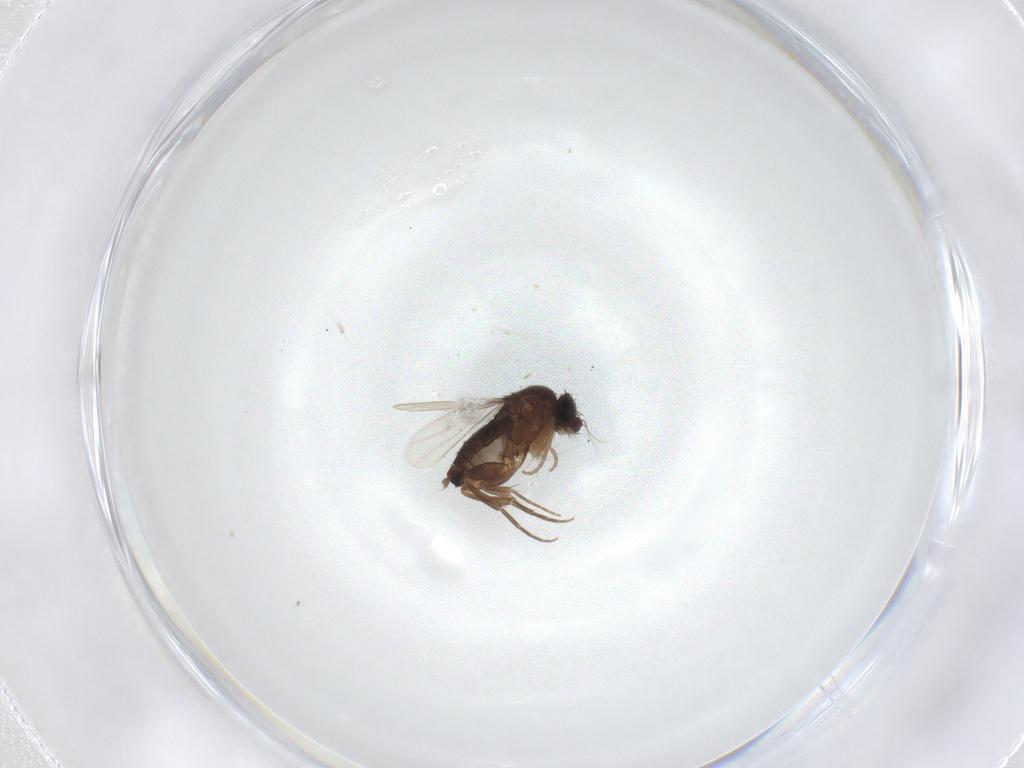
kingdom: Animalia
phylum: Arthropoda
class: Insecta
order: Diptera
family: Phoridae
